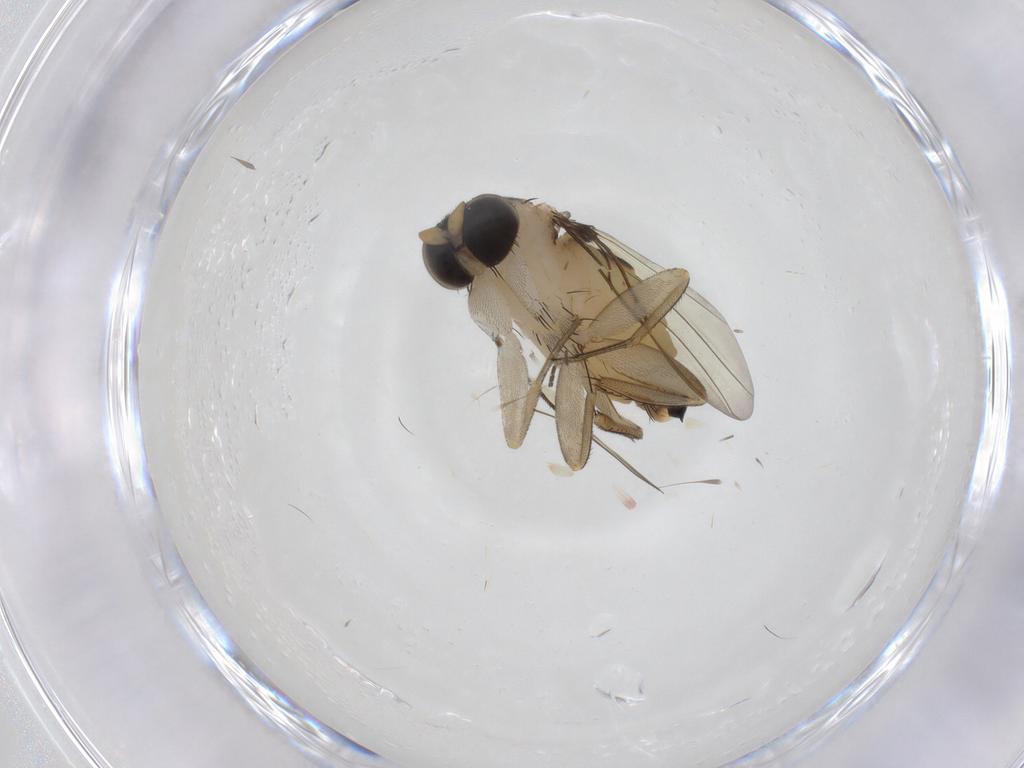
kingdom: Animalia
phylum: Arthropoda
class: Insecta
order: Diptera
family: Phoridae
